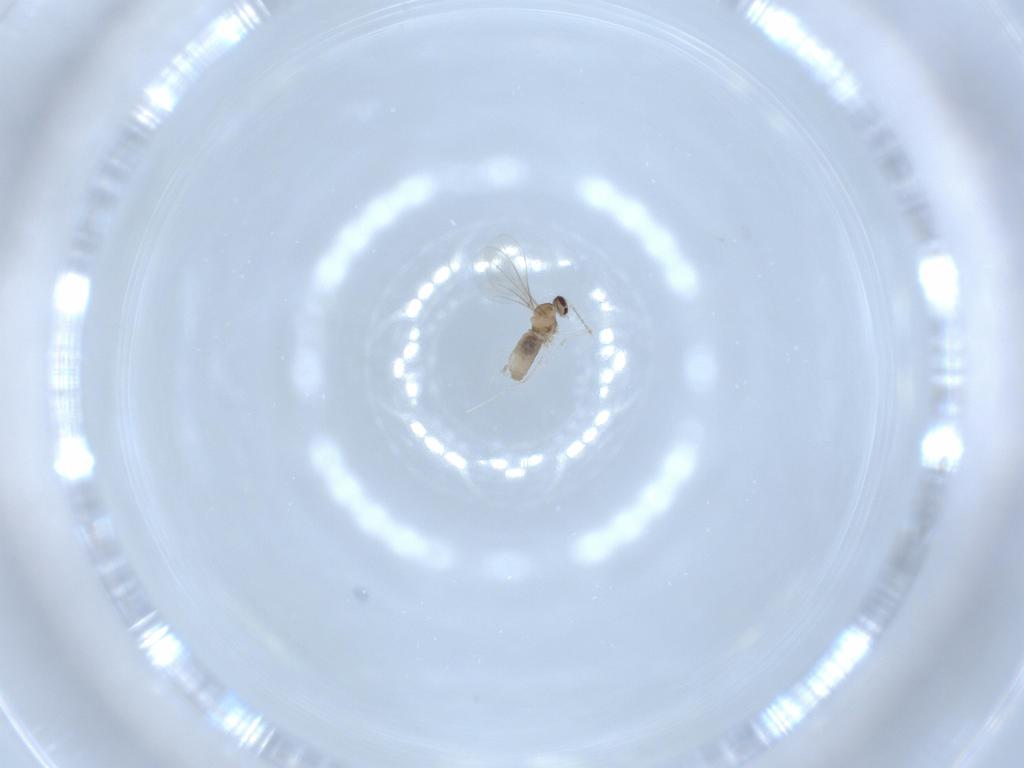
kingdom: Animalia
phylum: Arthropoda
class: Insecta
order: Diptera
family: Cecidomyiidae
